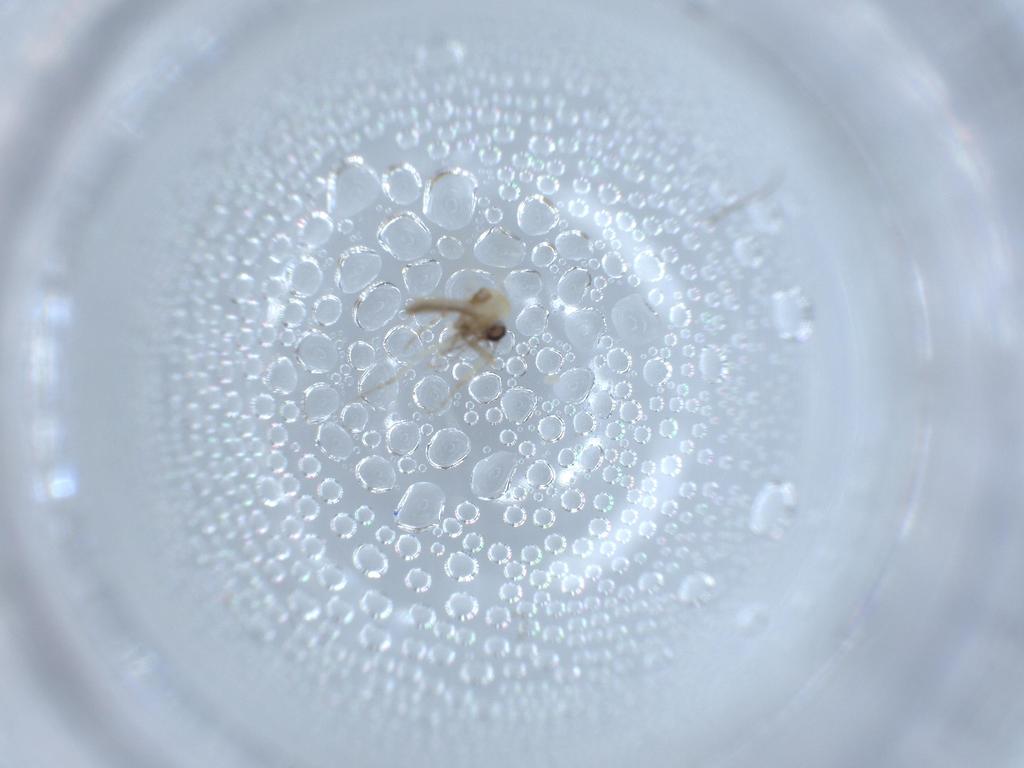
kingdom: Animalia
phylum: Arthropoda
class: Insecta
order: Diptera
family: Chironomidae
